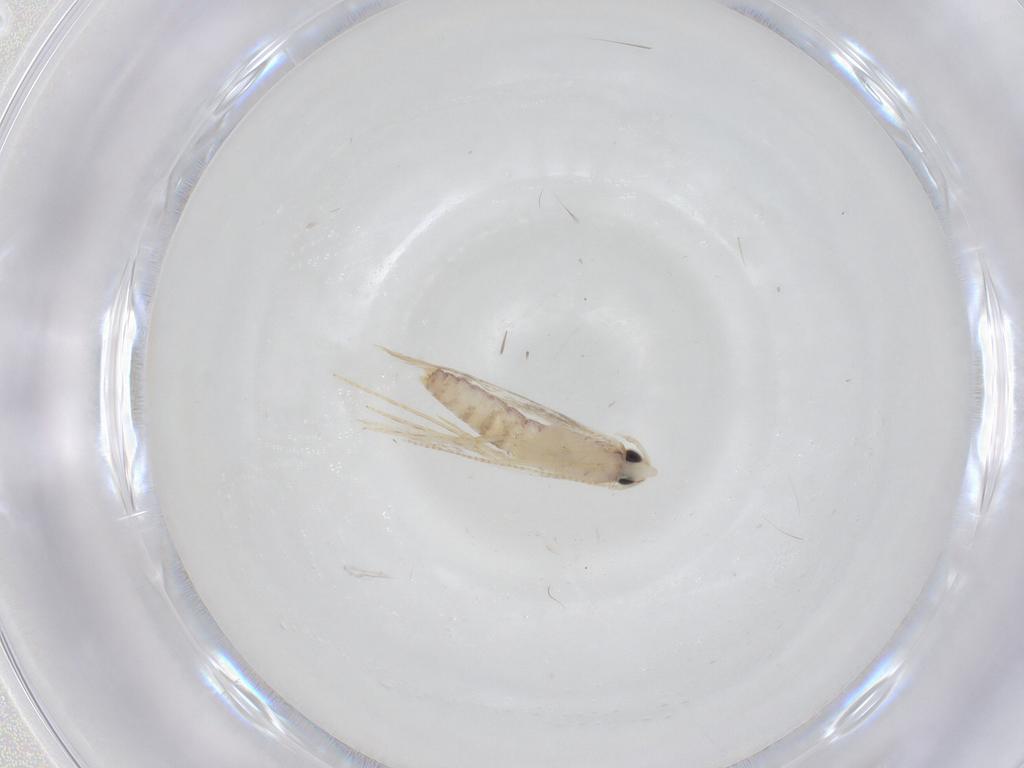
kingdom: Animalia
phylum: Arthropoda
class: Insecta
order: Lepidoptera
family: Tineidae
